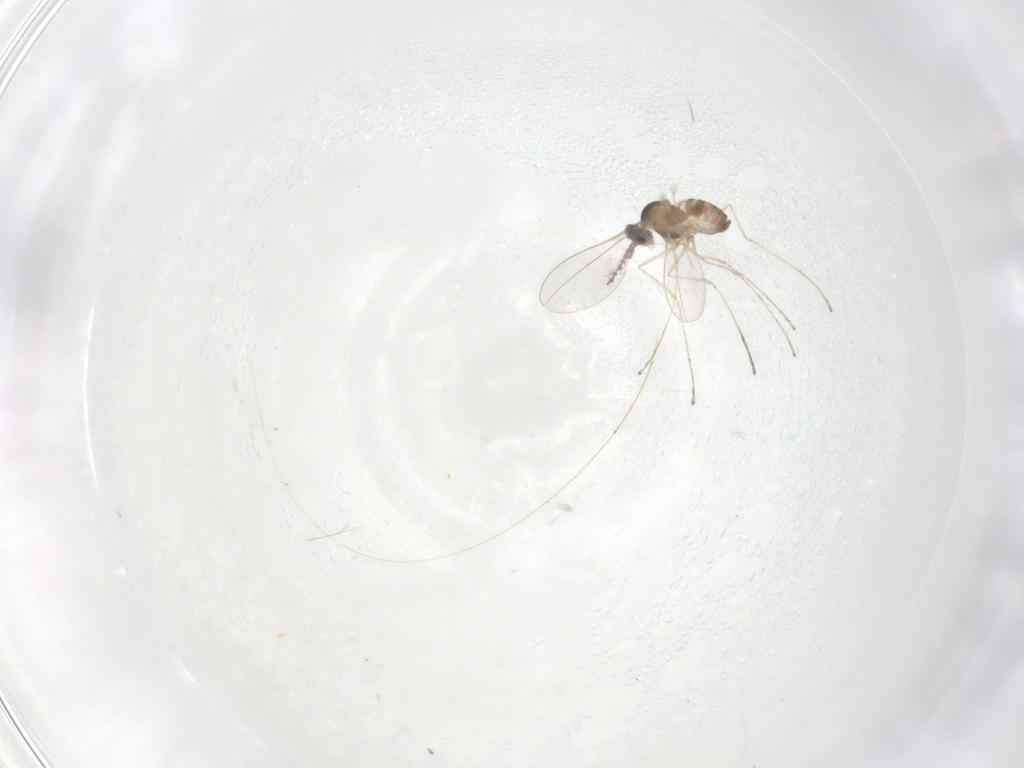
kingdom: Animalia
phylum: Arthropoda
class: Insecta
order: Diptera
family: Cecidomyiidae
